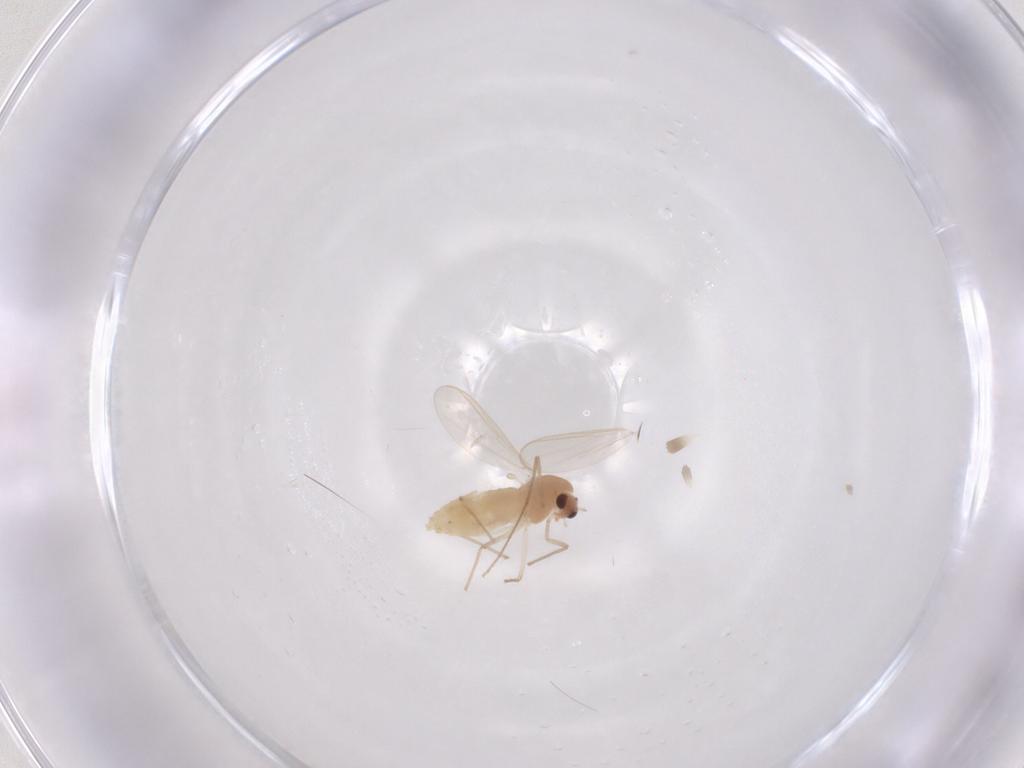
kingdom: Animalia
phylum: Arthropoda
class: Insecta
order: Diptera
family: Chironomidae
